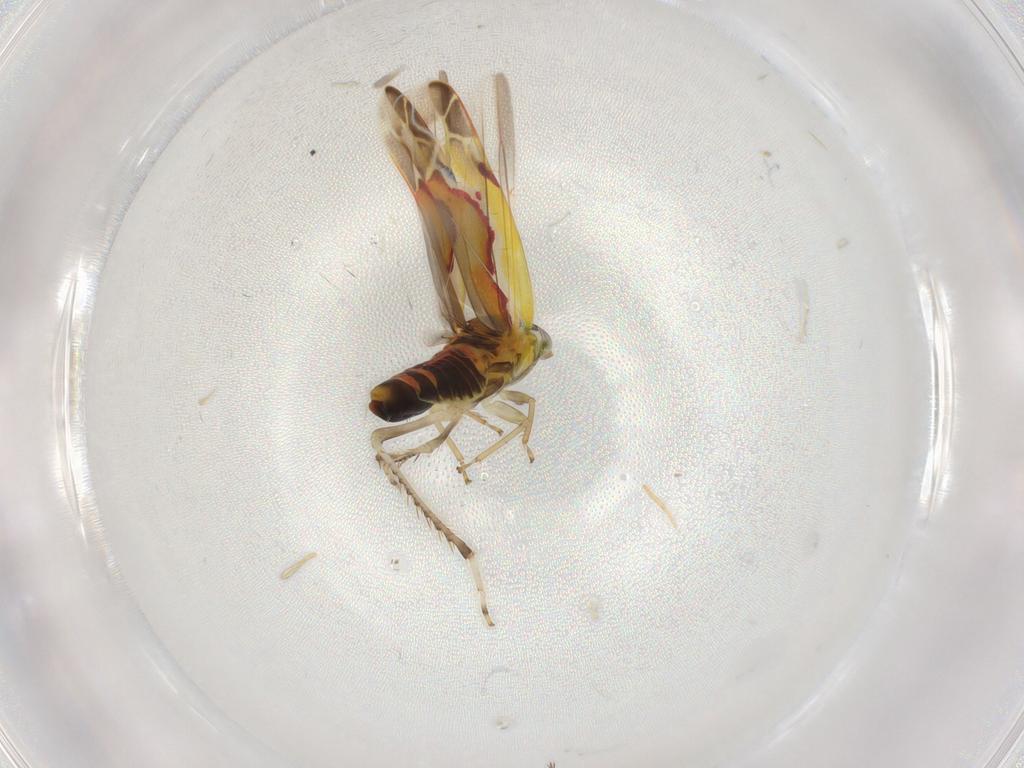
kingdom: Animalia
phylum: Arthropoda
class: Insecta
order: Hemiptera
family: Cicadellidae
